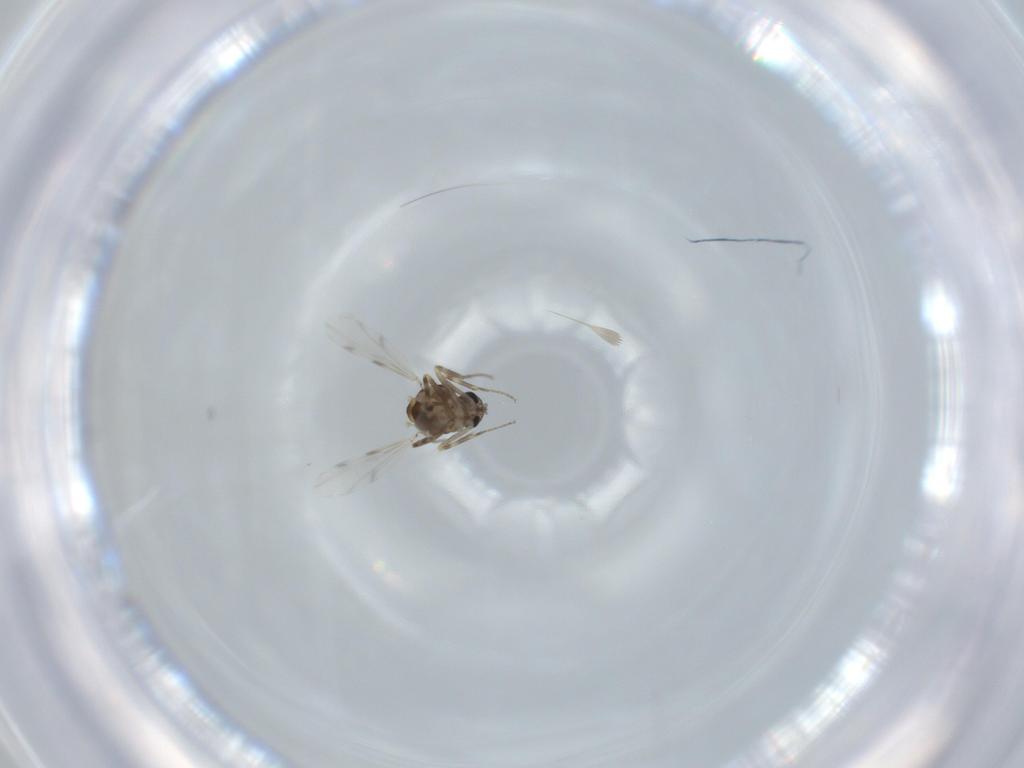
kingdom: Animalia
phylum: Arthropoda
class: Insecta
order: Diptera
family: Ceratopogonidae
